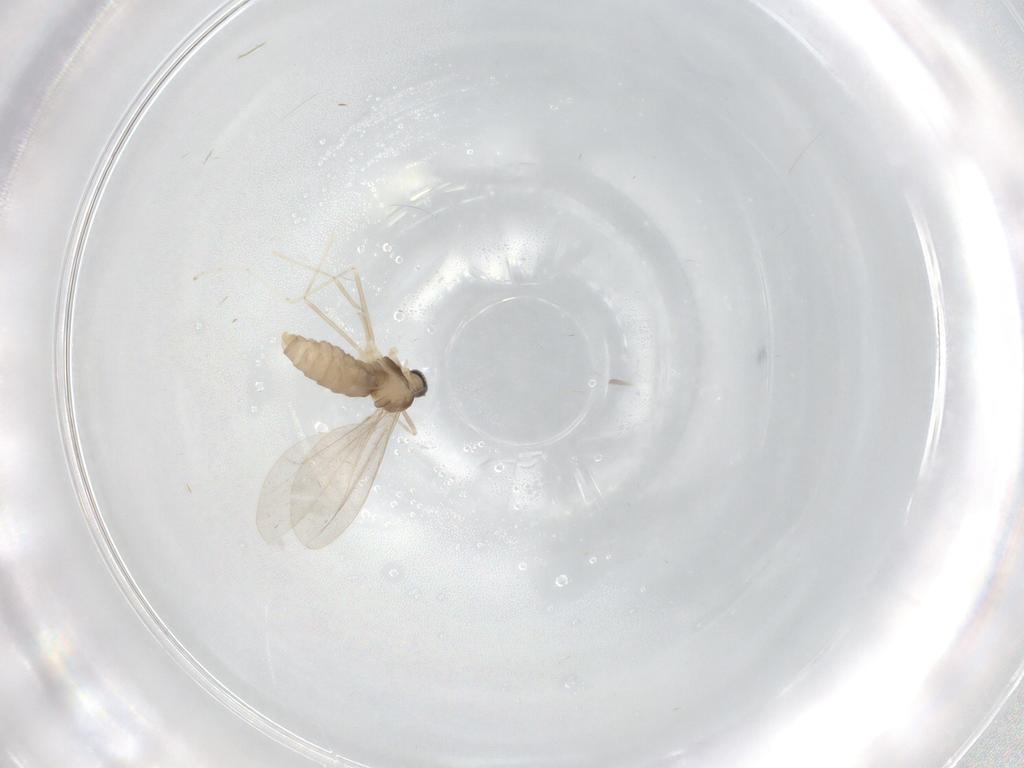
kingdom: Animalia
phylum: Arthropoda
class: Insecta
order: Diptera
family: Cecidomyiidae
